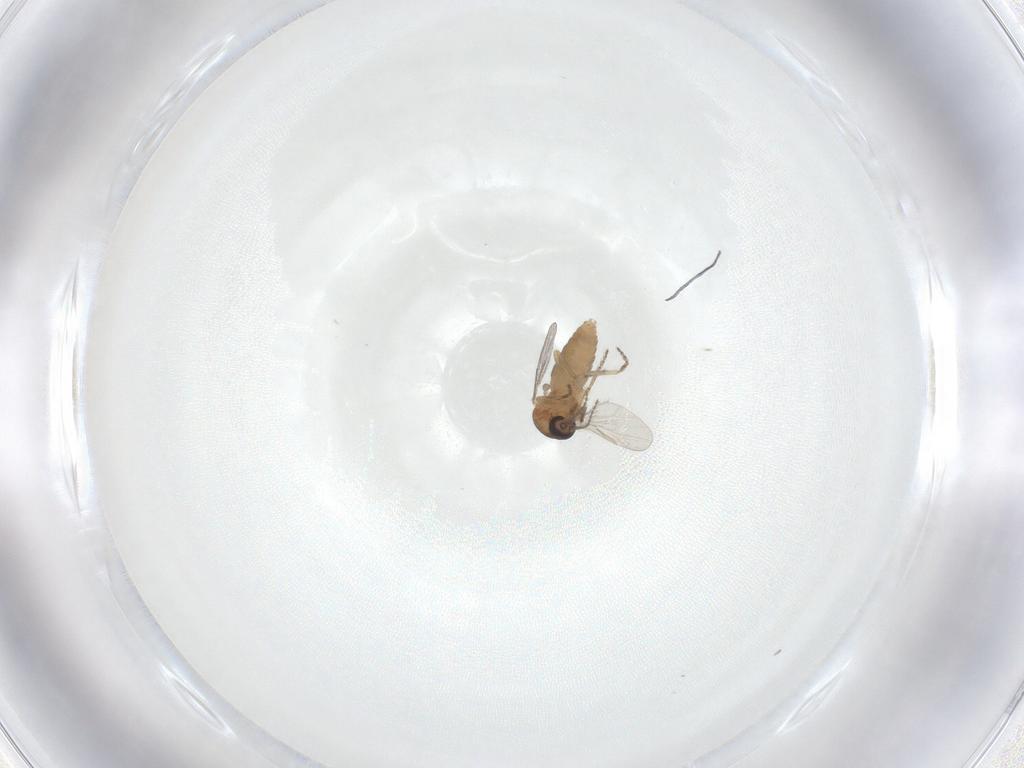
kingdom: Animalia
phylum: Arthropoda
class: Insecta
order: Diptera
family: Ceratopogonidae
